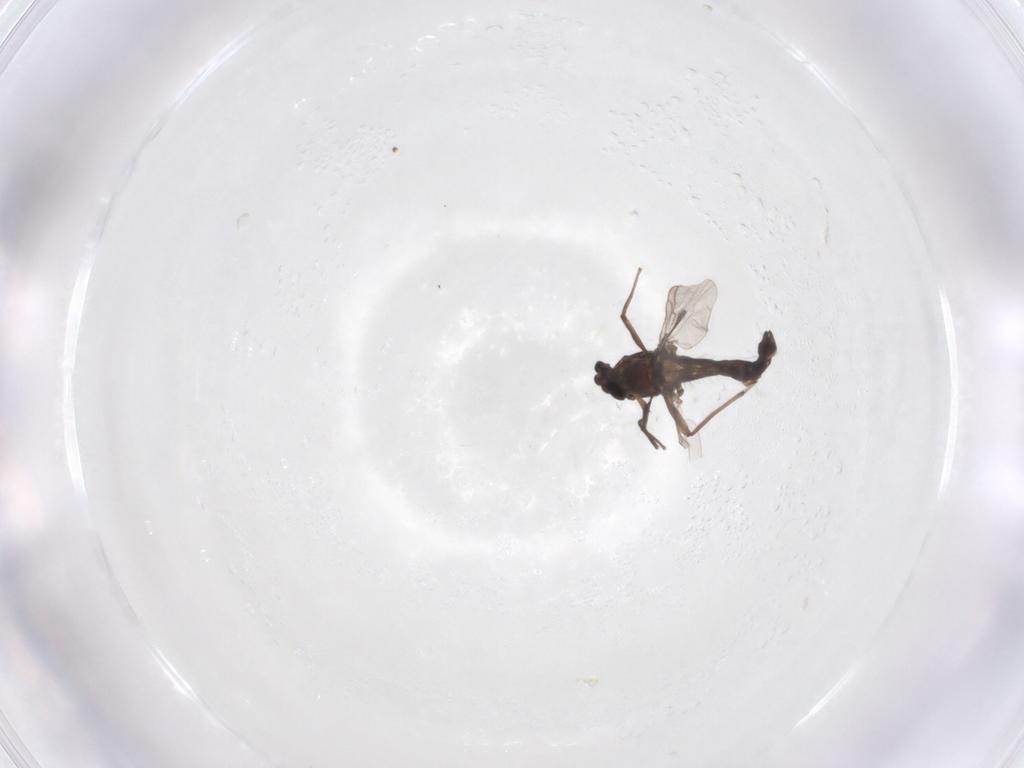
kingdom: Animalia
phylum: Arthropoda
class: Insecta
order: Diptera
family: Chironomidae
